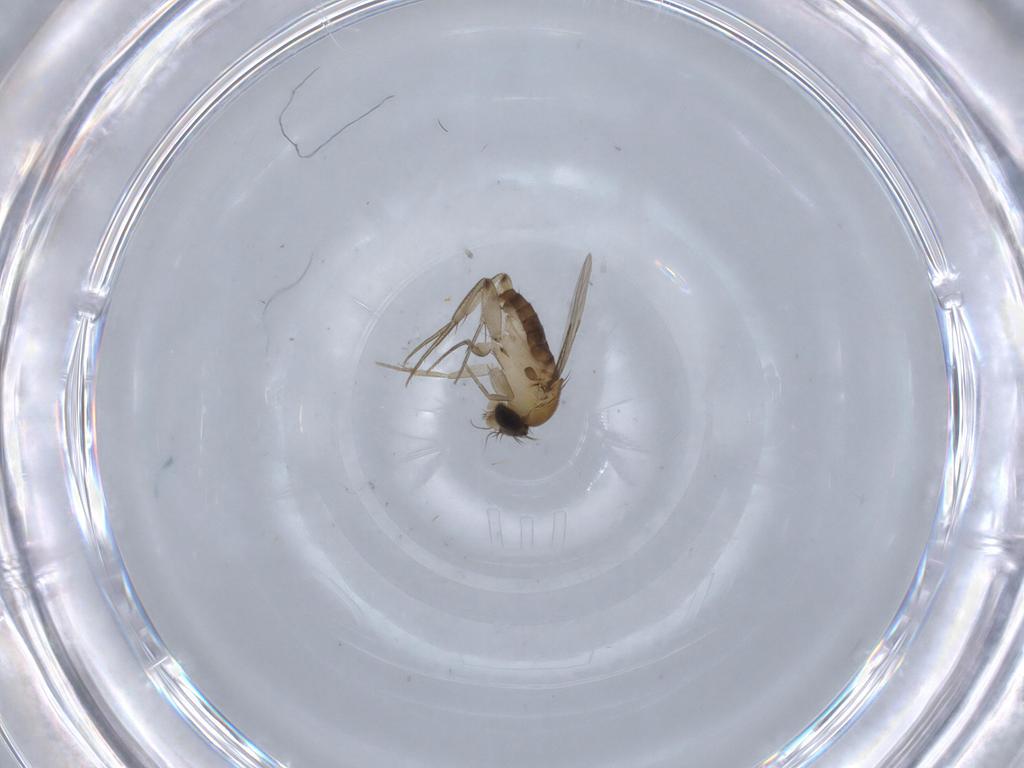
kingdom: Animalia
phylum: Arthropoda
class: Insecta
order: Diptera
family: Phoridae
